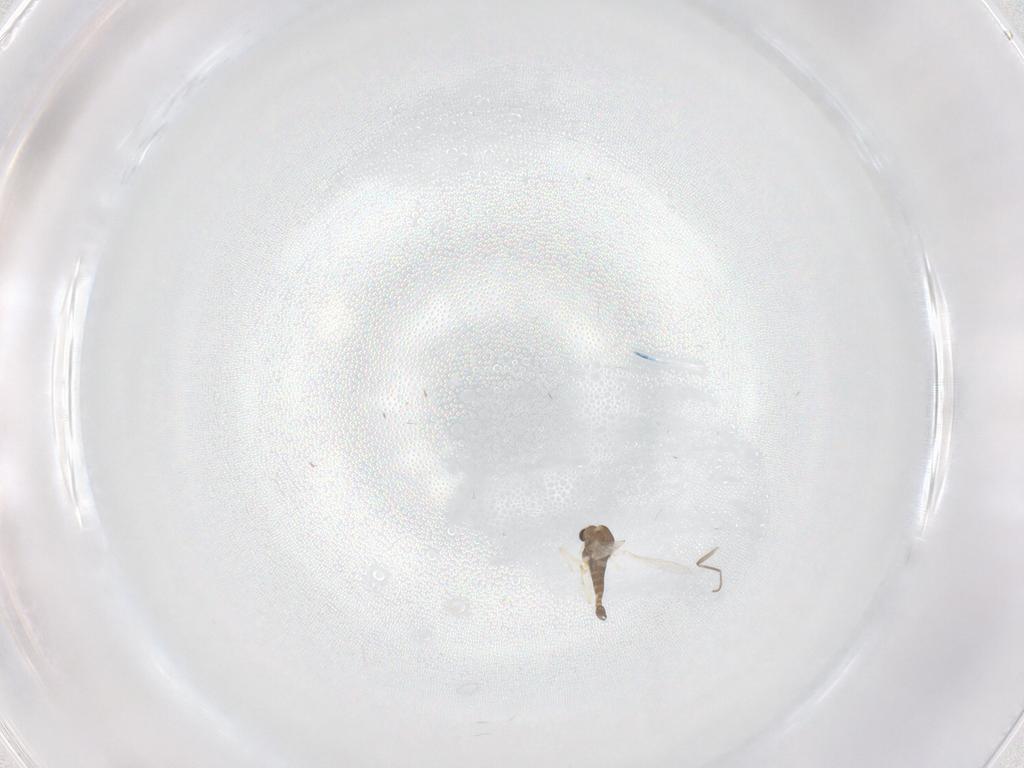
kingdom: Animalia
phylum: Arthropoda
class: Insecta
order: Diptera
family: Chironomidae
